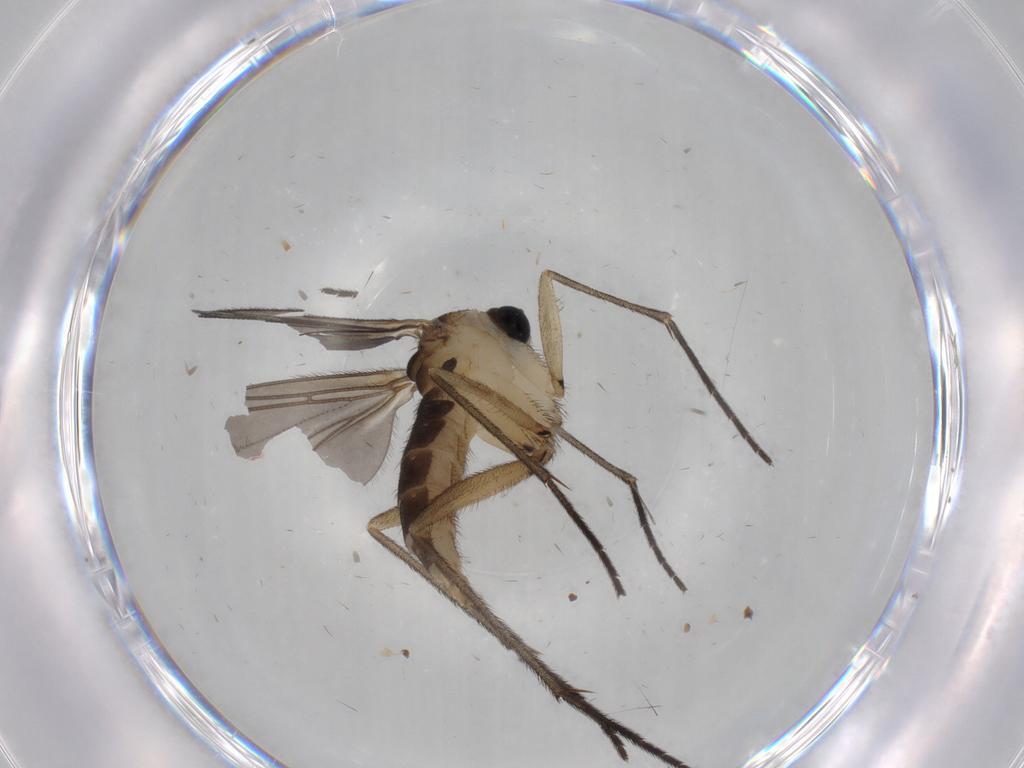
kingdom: Animalia
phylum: Arthropoda
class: Insecta
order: Diptera
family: Sciaridae
